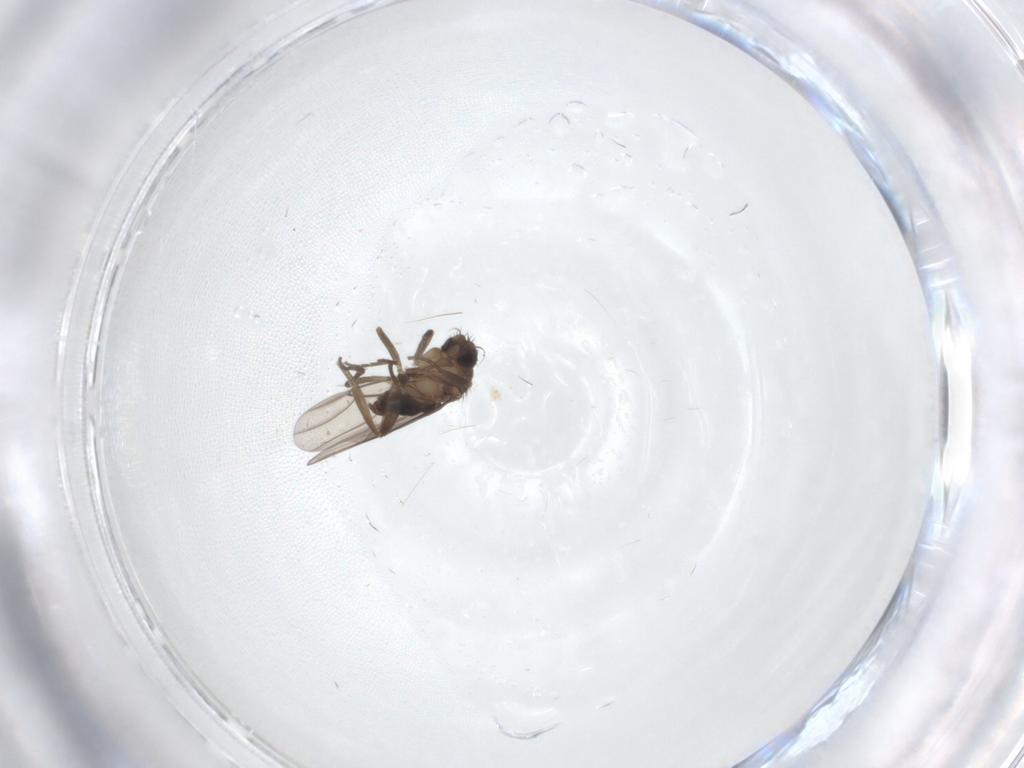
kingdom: Animalia
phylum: Arthropoda
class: Insecta
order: Diptera
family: Phoridae
